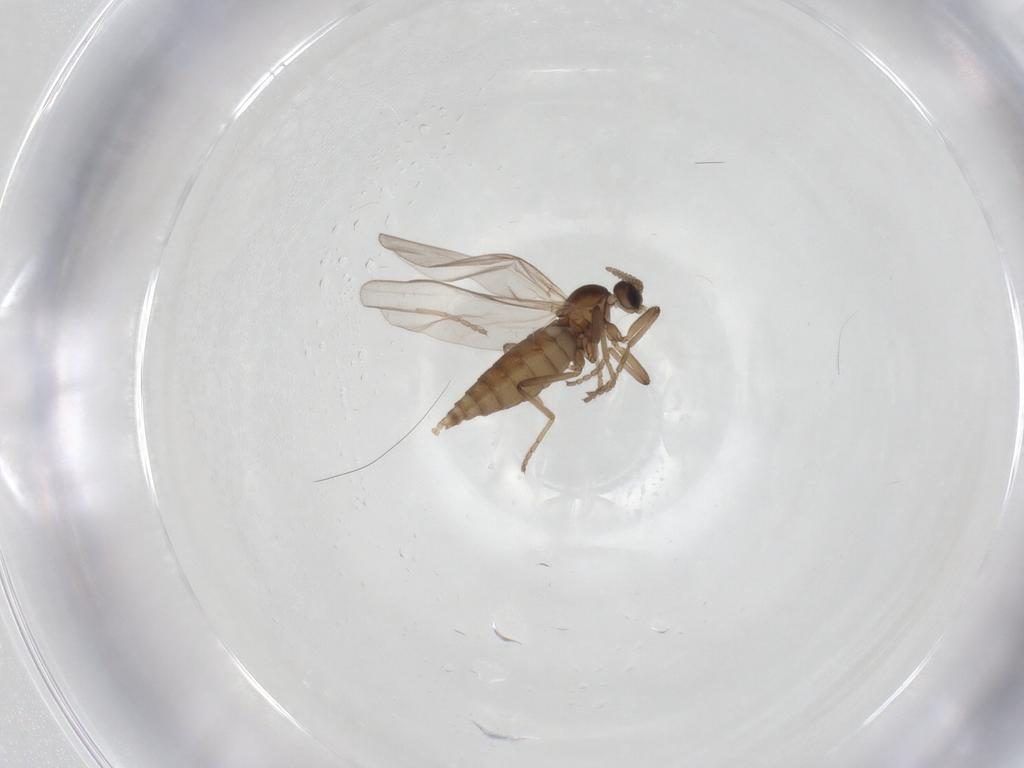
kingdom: Animalia
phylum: Arthropoda
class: Insecta
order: Diptera
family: Cecidomyiidae
